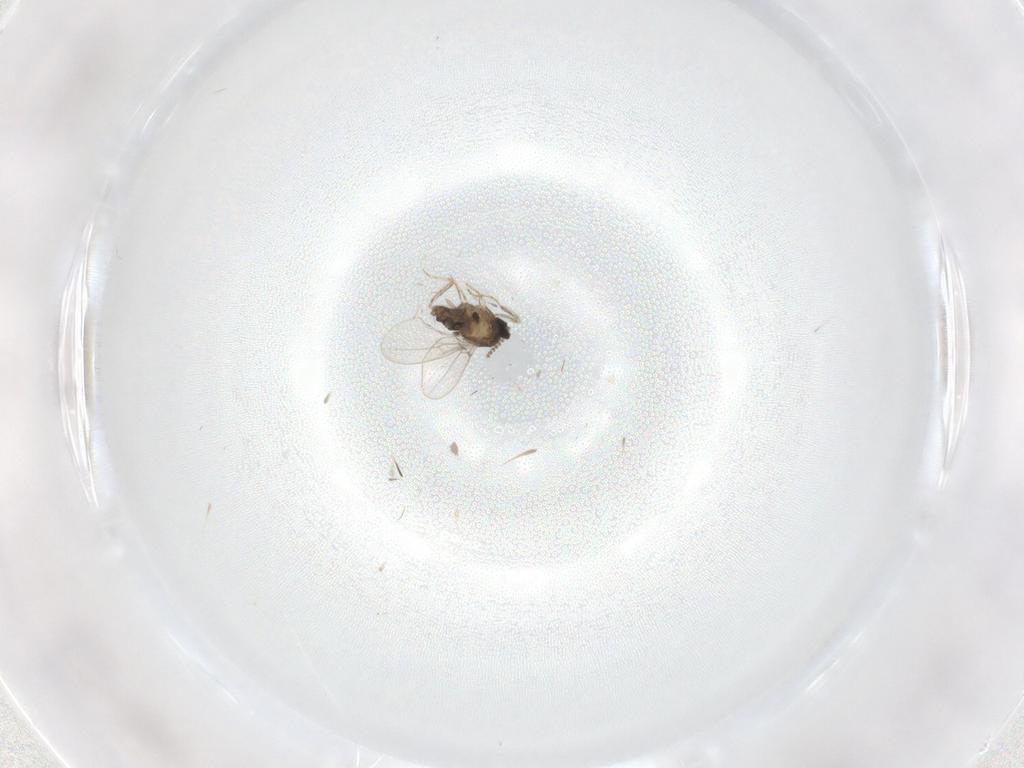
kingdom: Animalia
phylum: Arthropoda
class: Insecta
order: Diptera
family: Cecidomyiidae
